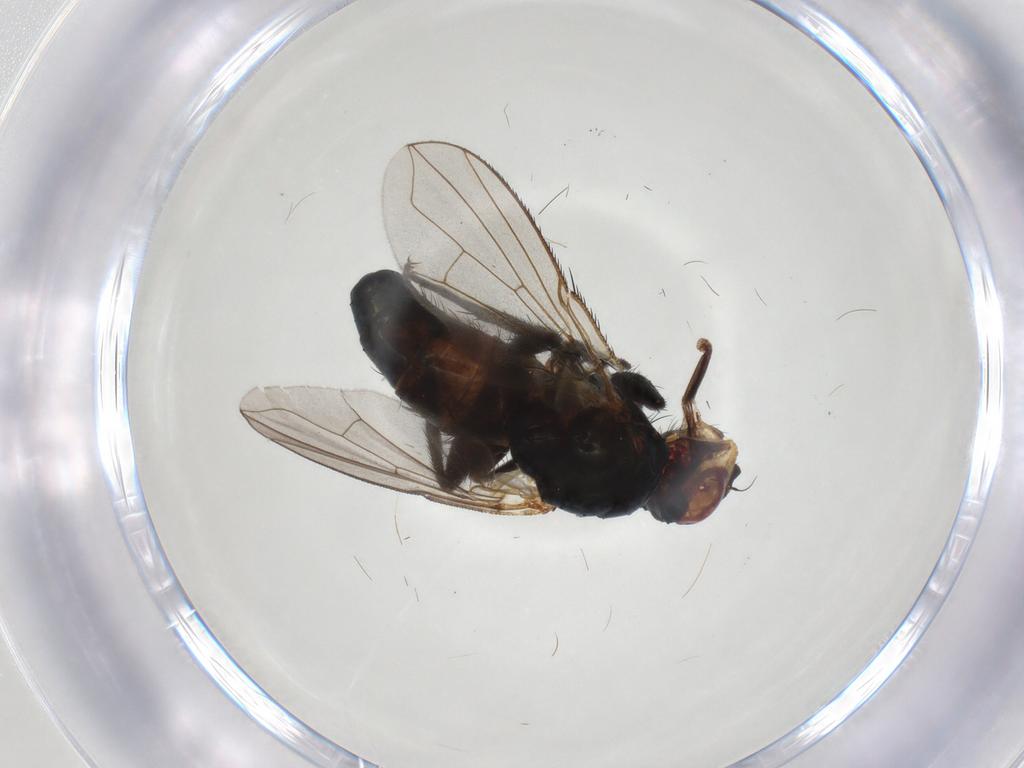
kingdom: Animalia
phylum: Arthropoda
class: Insecta
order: Diptera
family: Calliphoridae
